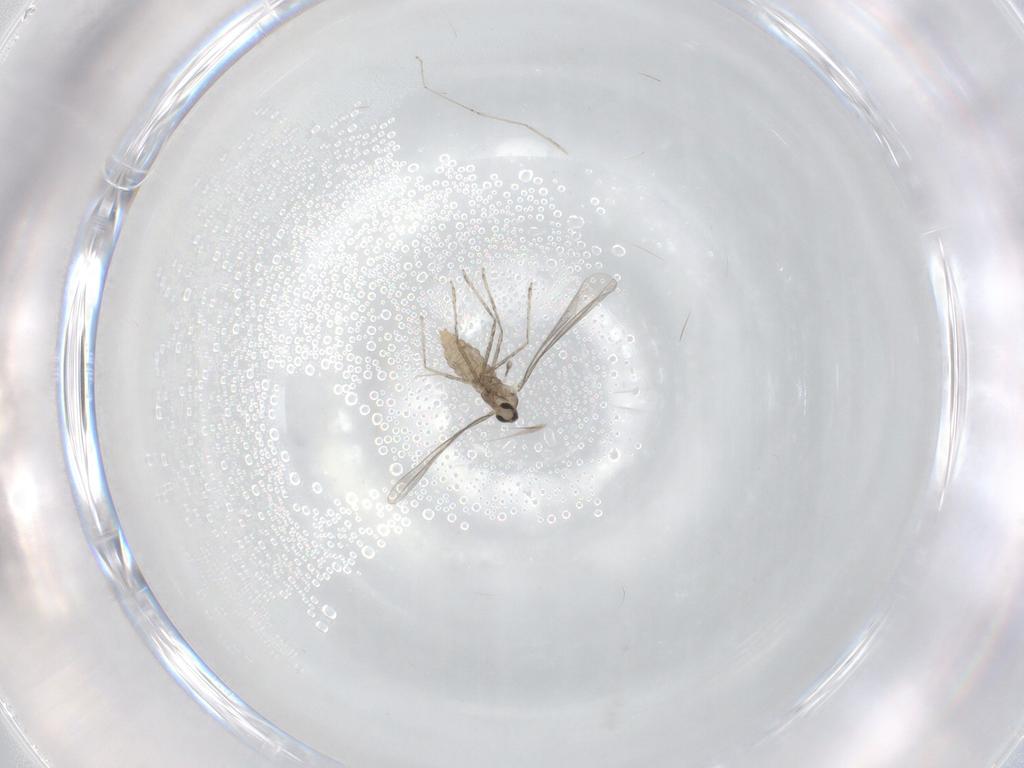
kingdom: Animalia
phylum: Arthropoda
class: Insecta
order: Diptera
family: Cecidomyiidae
